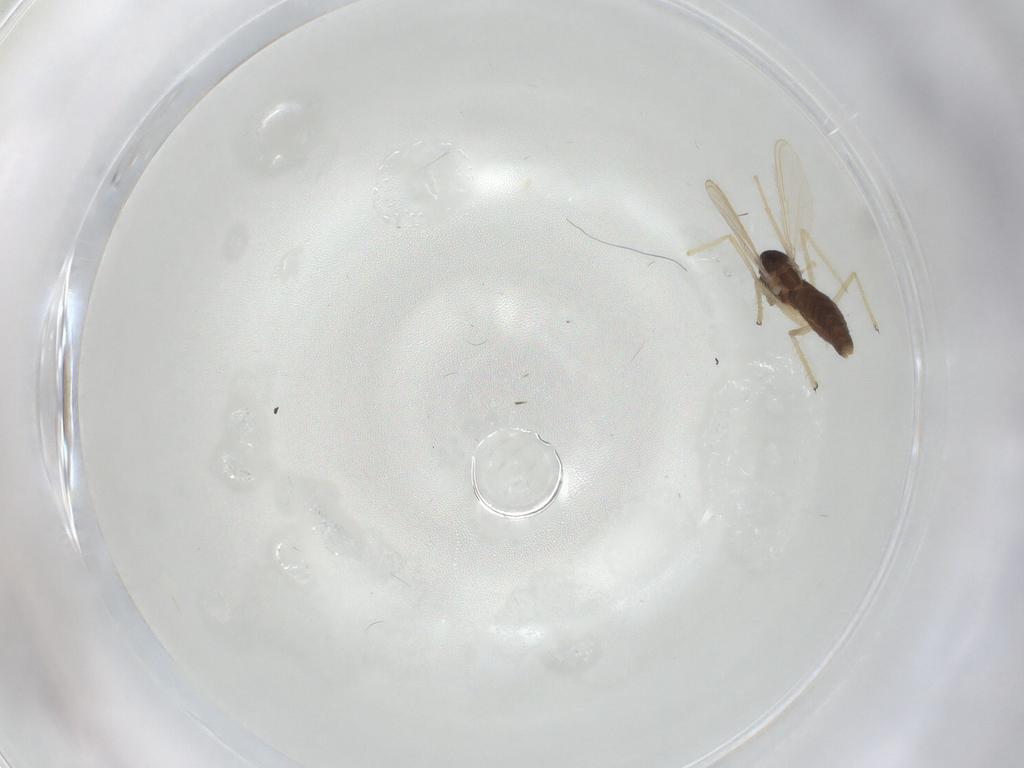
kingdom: Animalia
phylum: Arthropoda
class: Insecta
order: Diptera
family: Chironomidae
